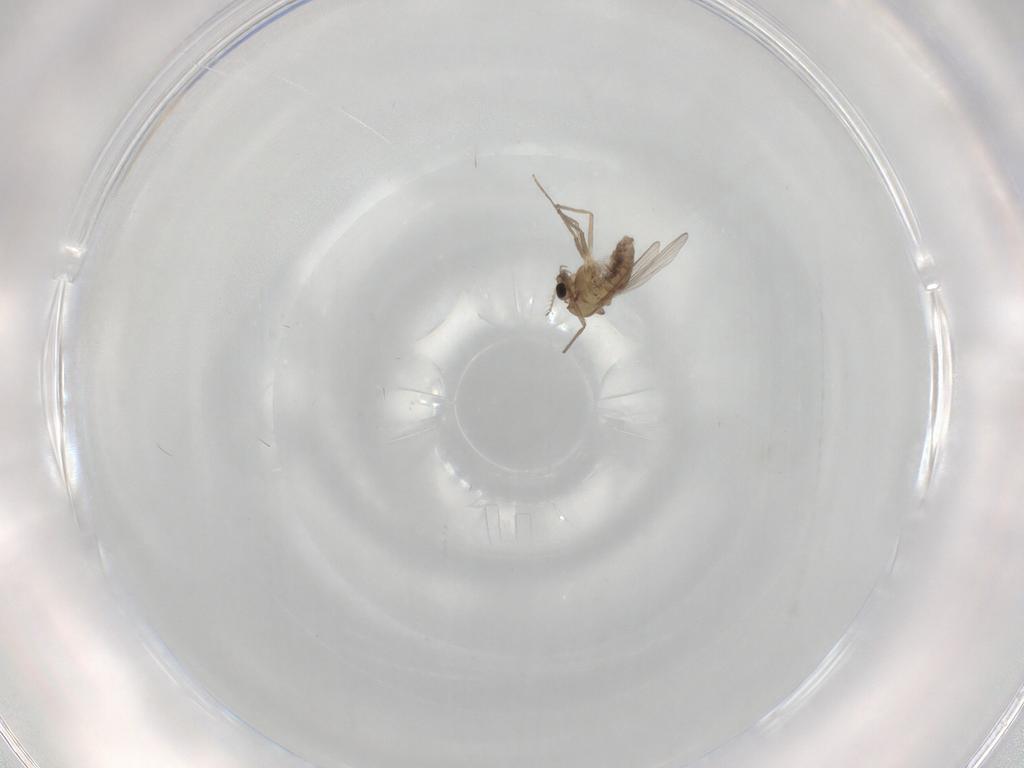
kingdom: Animalia
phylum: Arthropoda
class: Insecta
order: Diptera
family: Chironomidae
